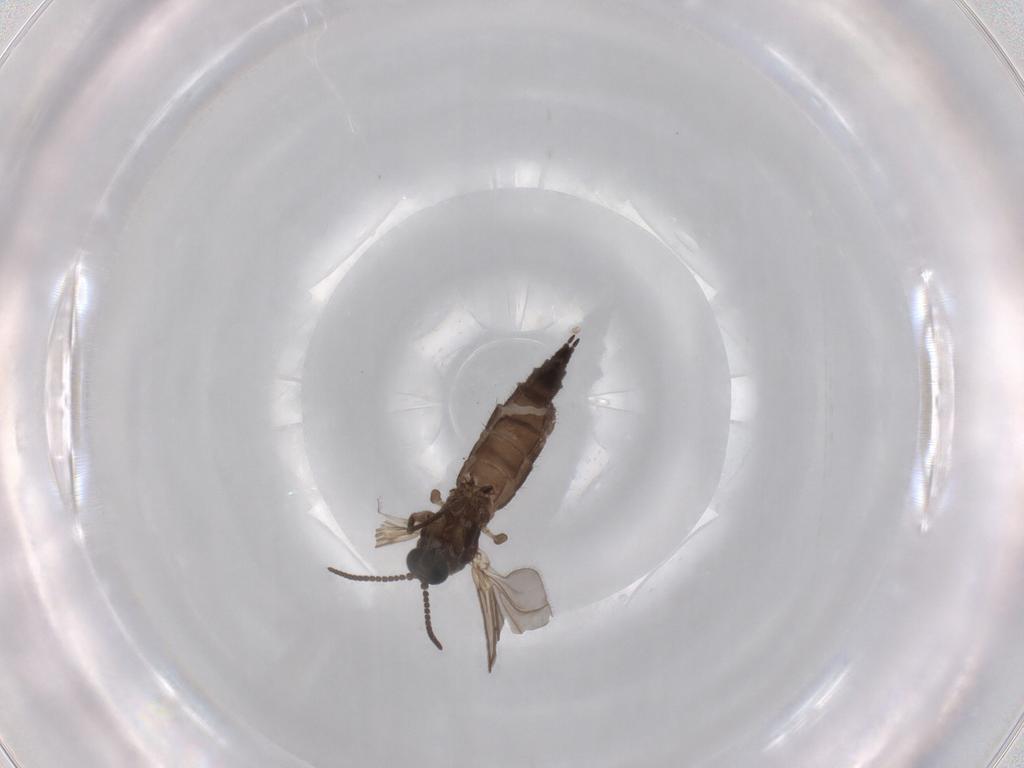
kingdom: Animalia
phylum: Arthropoda
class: Insecta
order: Diptera
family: Sciaridae
